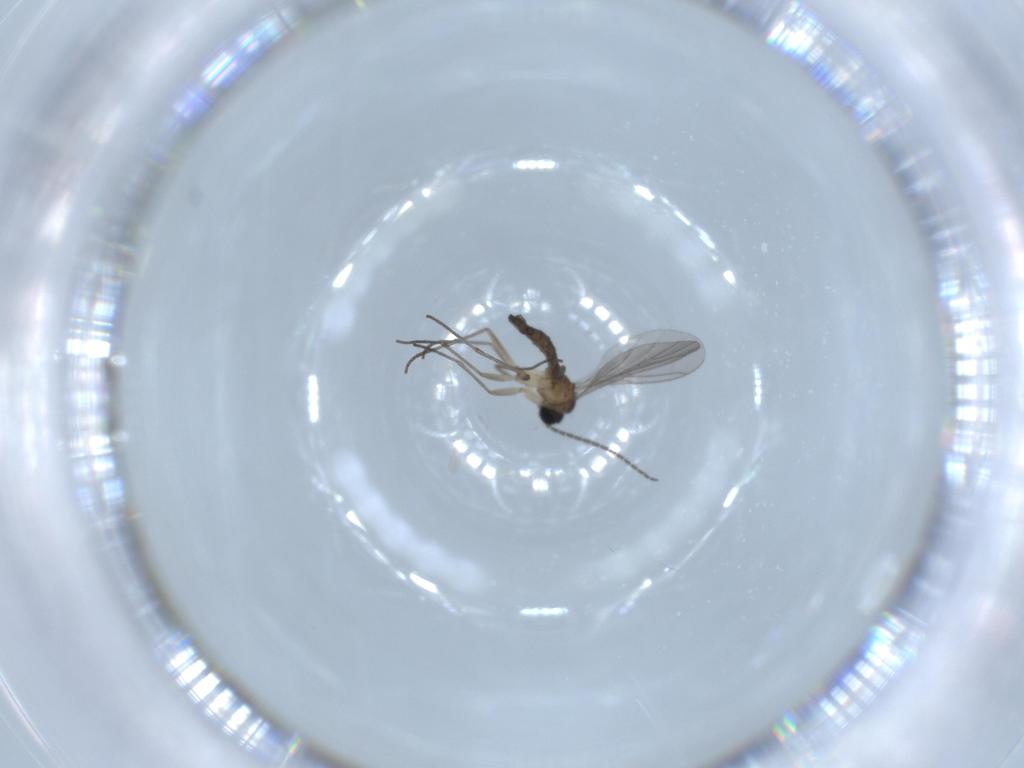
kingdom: Animalia
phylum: Arthropoda
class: Insecta
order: Diptera
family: Sciaridae
